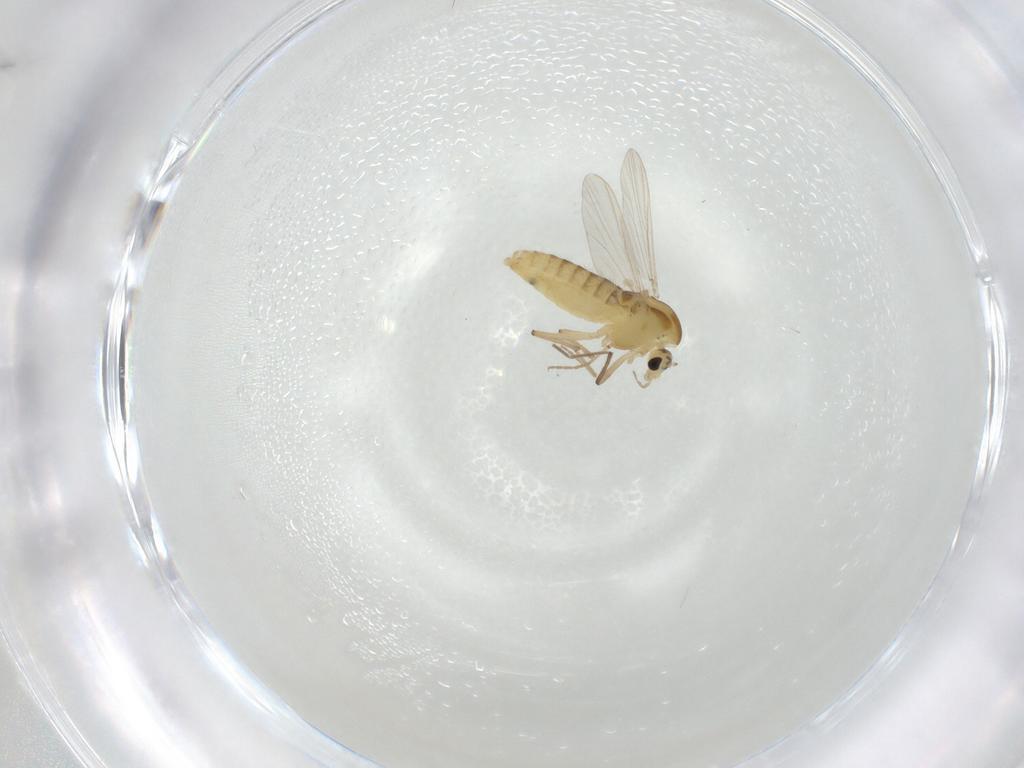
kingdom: Animalia
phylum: Arthropoda
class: Insecta
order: Diptera
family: Chironomidae
